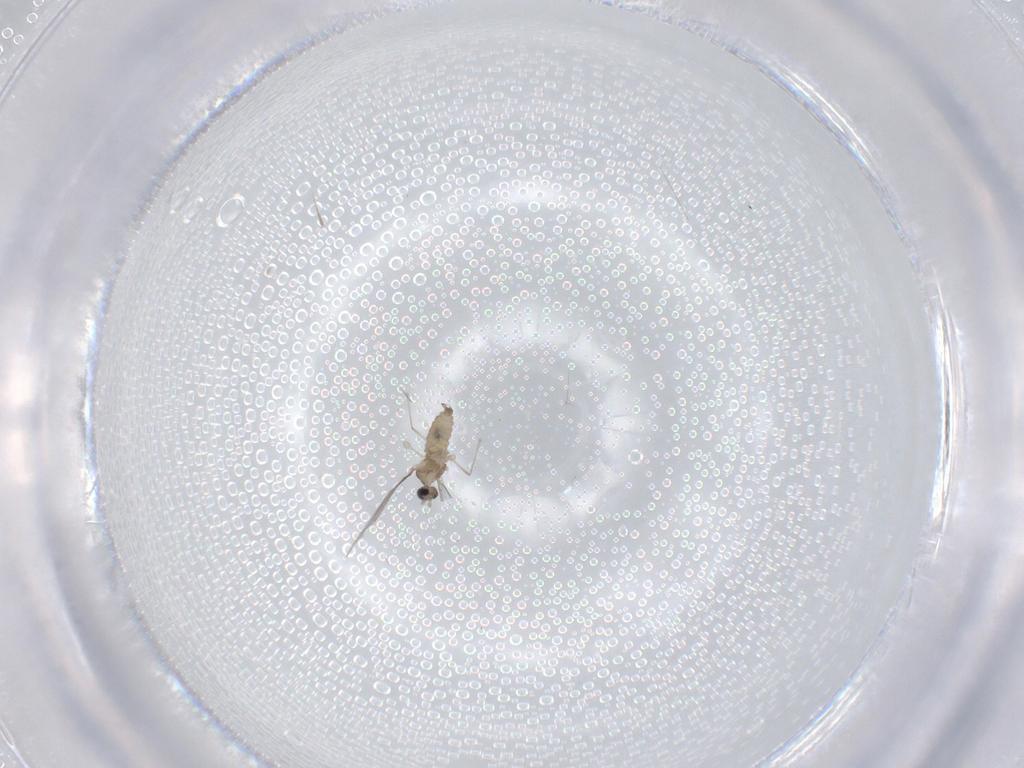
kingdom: Animalia
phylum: Arthropoda
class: Insecta
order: Diptera
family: Cecidomyiidae
